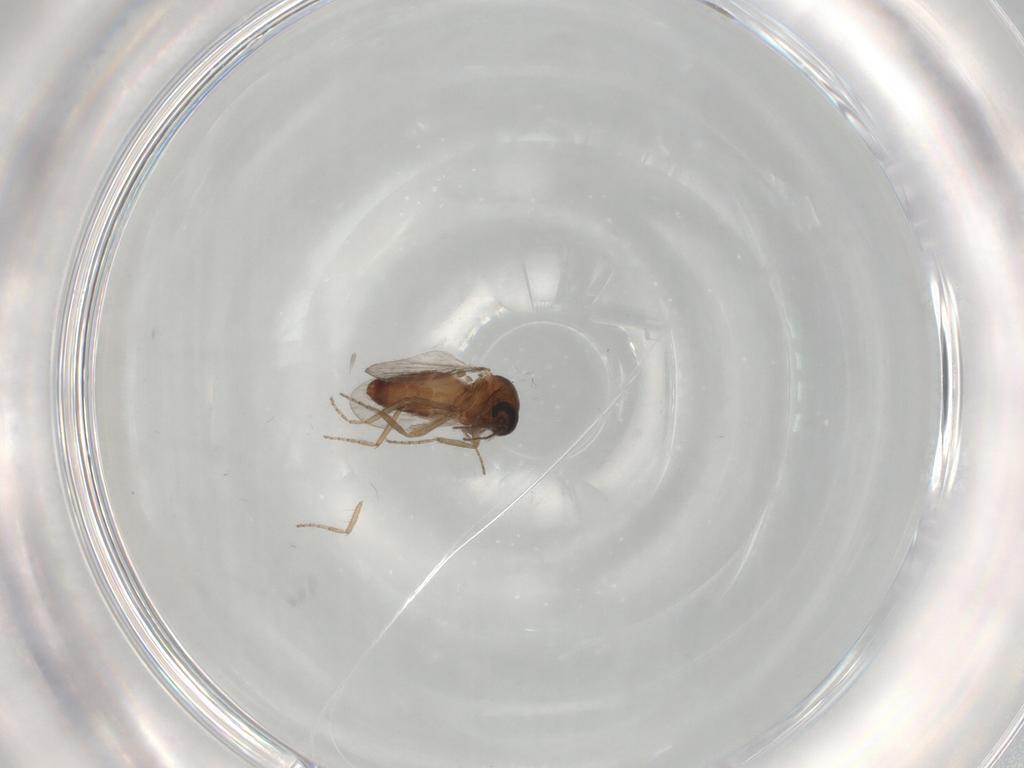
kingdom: Animalia
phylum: Arthropoda
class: Insecta
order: Diptera
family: Ceratopogonidae
